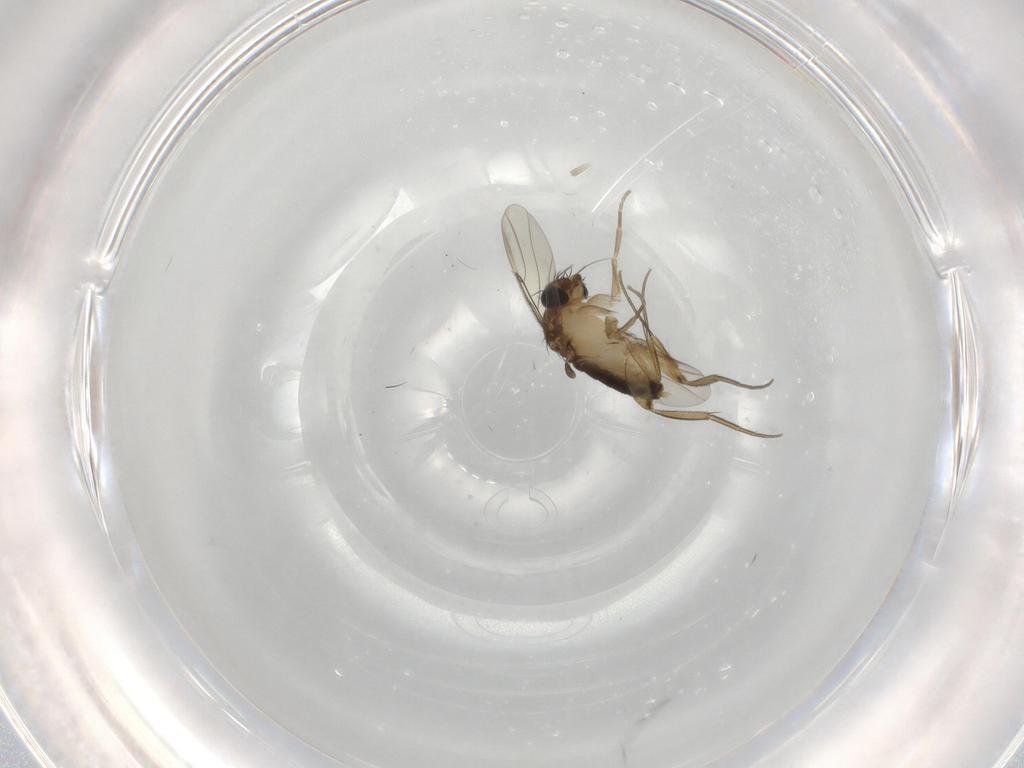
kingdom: Animalia
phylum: Arthropoda
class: Insecta
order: Diptera
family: Phoridae
